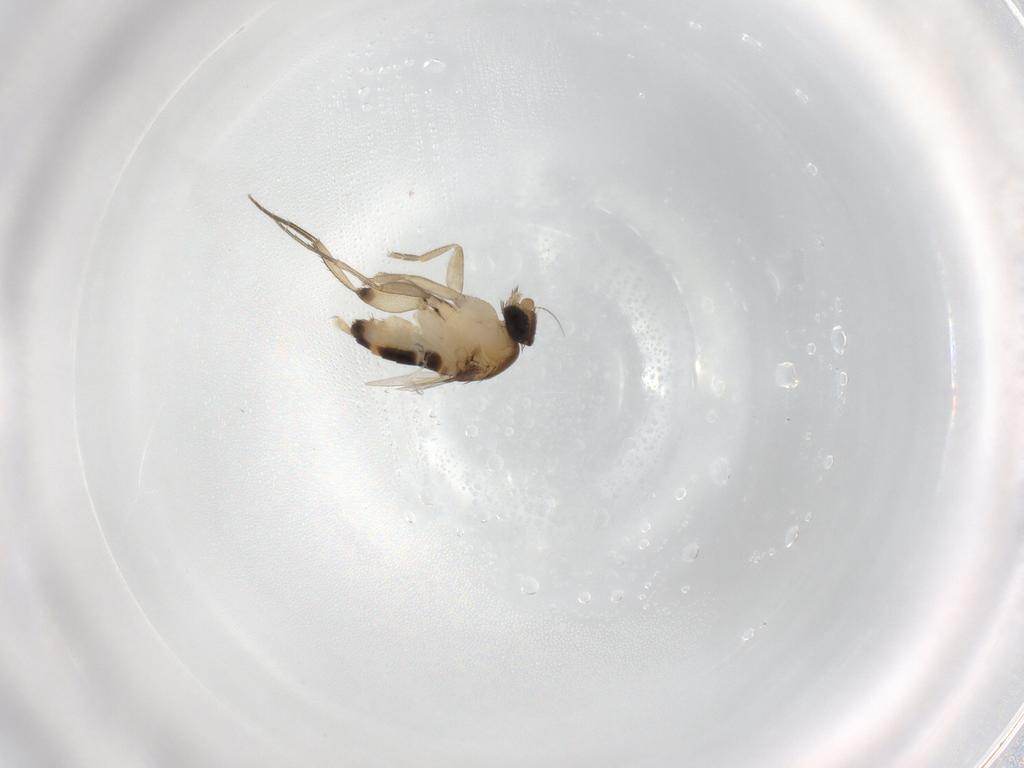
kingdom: Animalia
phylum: Arthropoda
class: Insecta
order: Diptera
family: Phoridae
